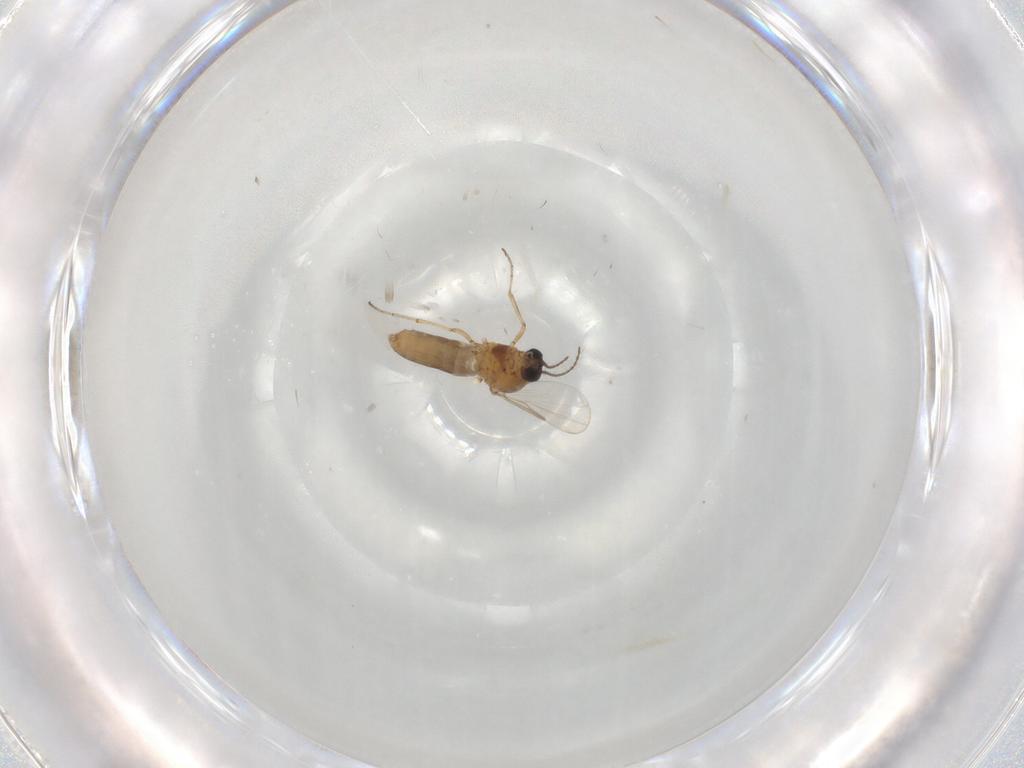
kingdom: Animalia
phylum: Arthropoda
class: Insecta
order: Diptera
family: Ceratopogonidae
